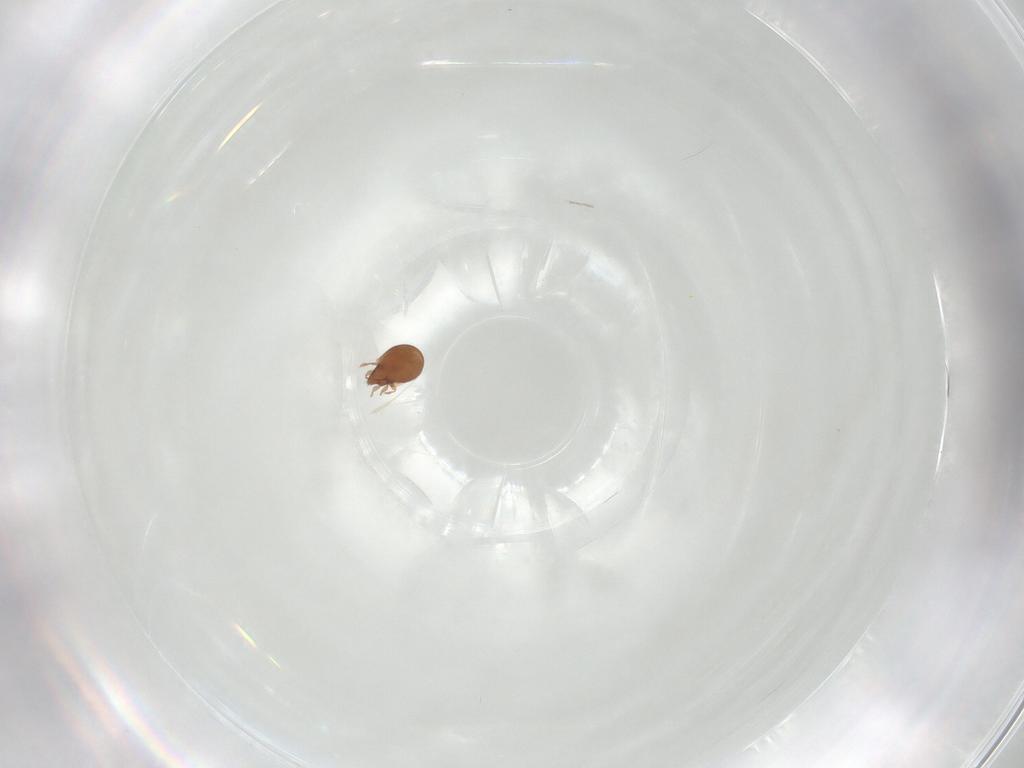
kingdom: Animalia
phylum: Arthropoda
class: Arachnida
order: Sarcoptiformes
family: Scheloribatidae
